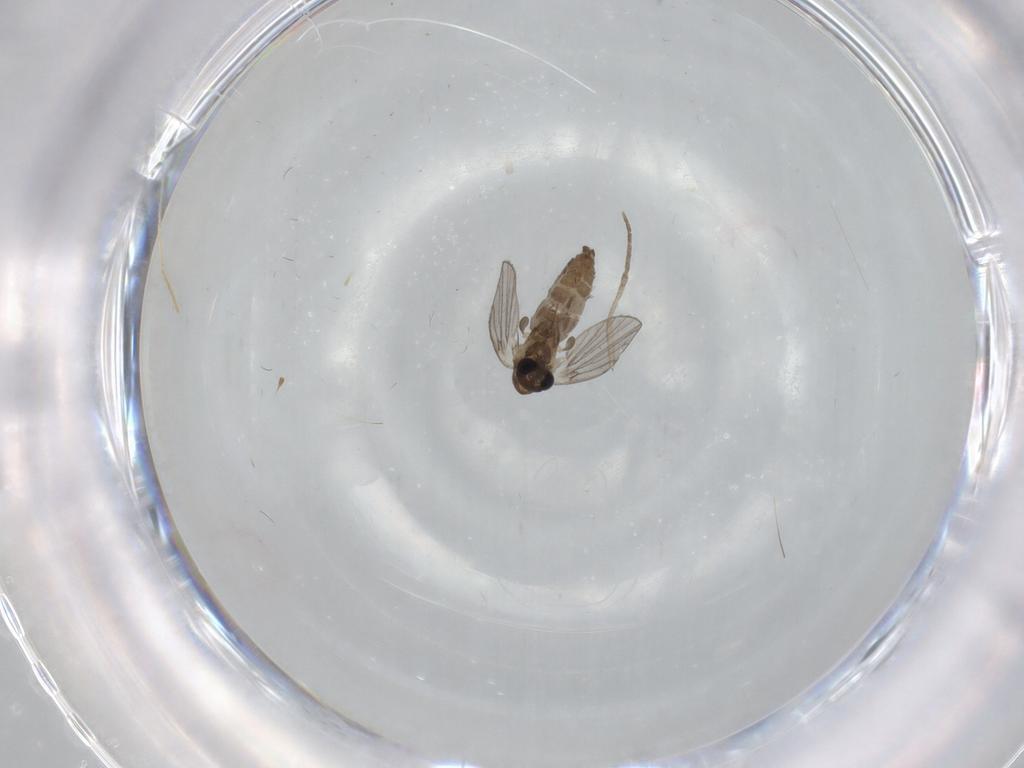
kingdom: Animalia
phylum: Arthropoda
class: Insecta
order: Diptera
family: Chironomidae
